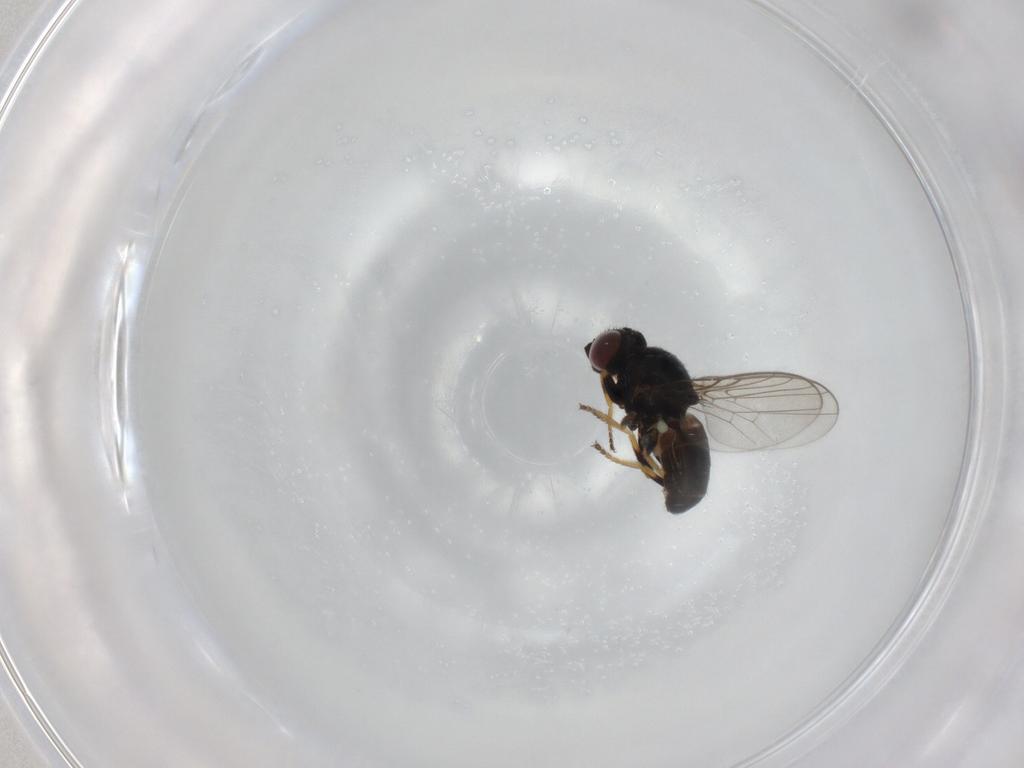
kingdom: Animalia
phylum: Arthropoda
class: Insecta
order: Diptera
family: Chloropidae
